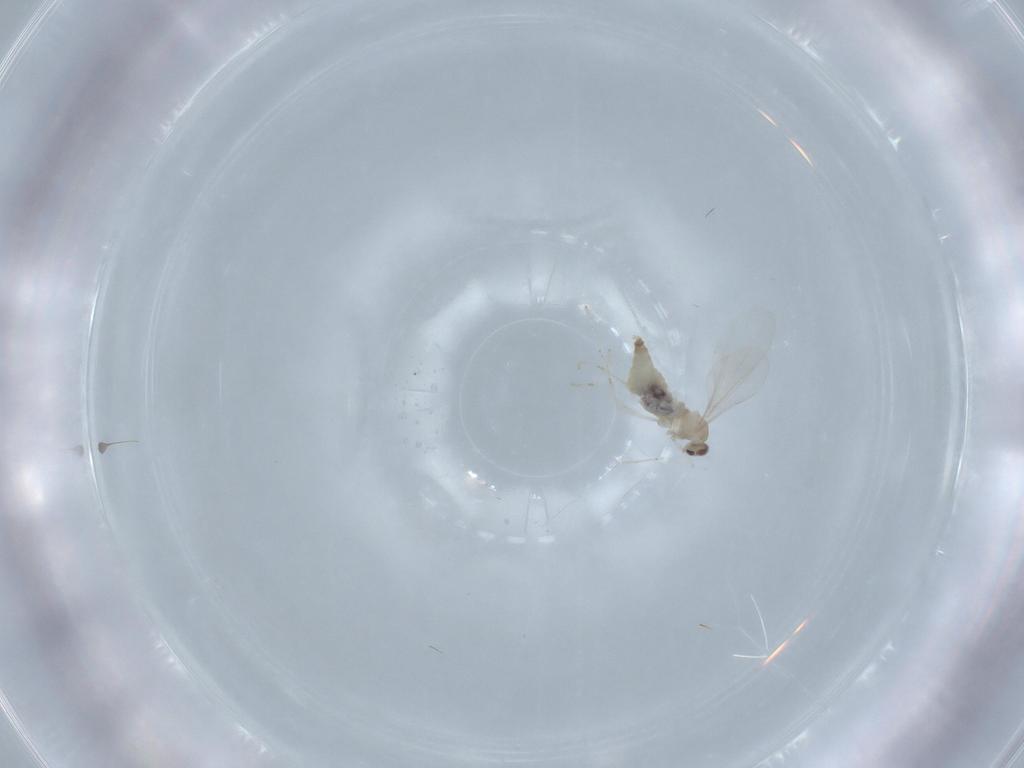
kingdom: Animalia
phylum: Arthropoda
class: Insecta
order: Diptera
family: Cecidomyiidae
